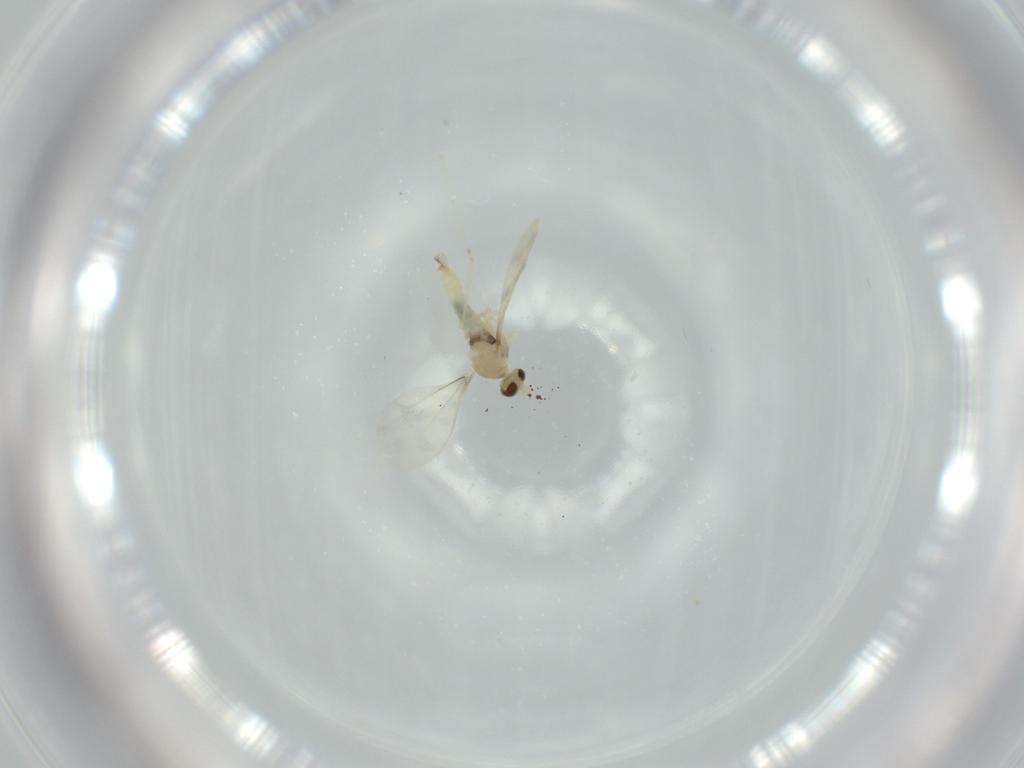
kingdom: Animalia
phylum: Arthropoda
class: Insecta
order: Diptera
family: Cecidomyiidae
